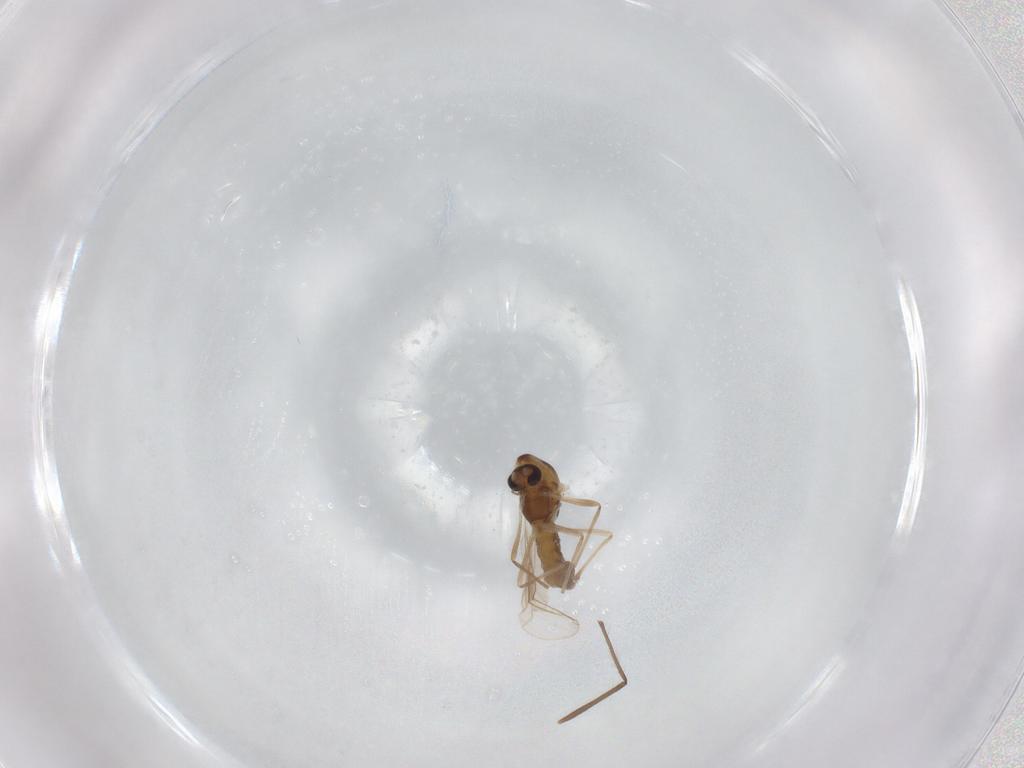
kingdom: Animalia
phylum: Arthropoda
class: Insecta
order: Diptera
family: Chironomidae
